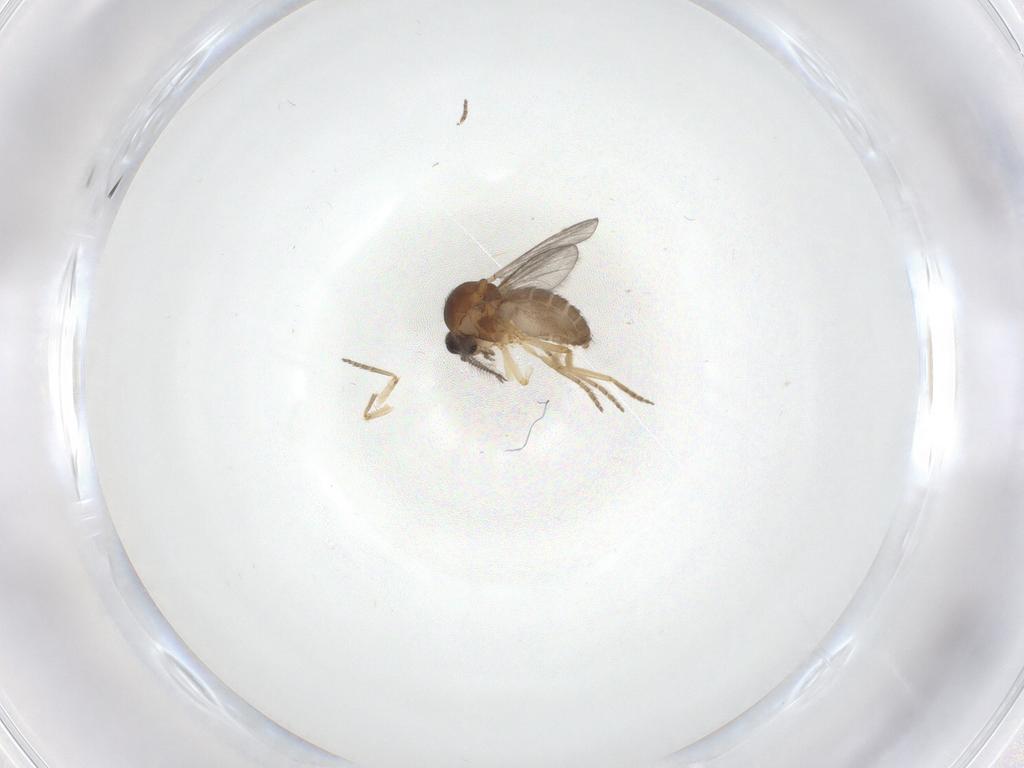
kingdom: Animalia
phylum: Arthropoda
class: Insecta
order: Diptera
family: Ceratopogonidae
